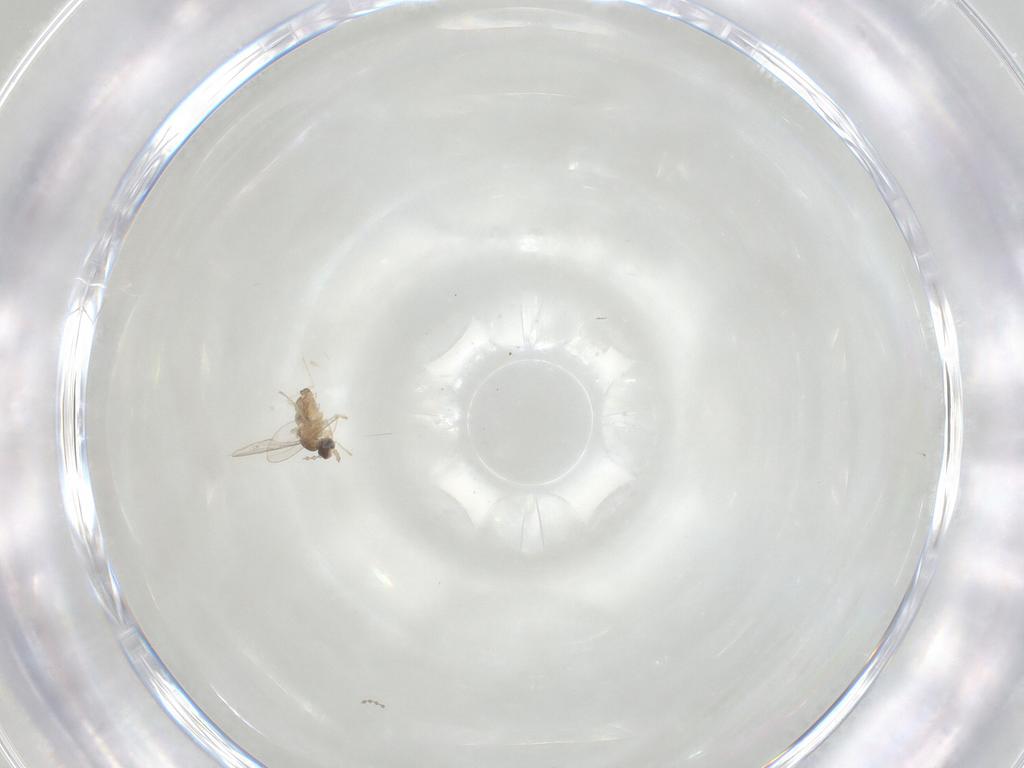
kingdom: Animalia
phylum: Arthropoda
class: Insecta
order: Diptera
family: Cecidomyiidae
